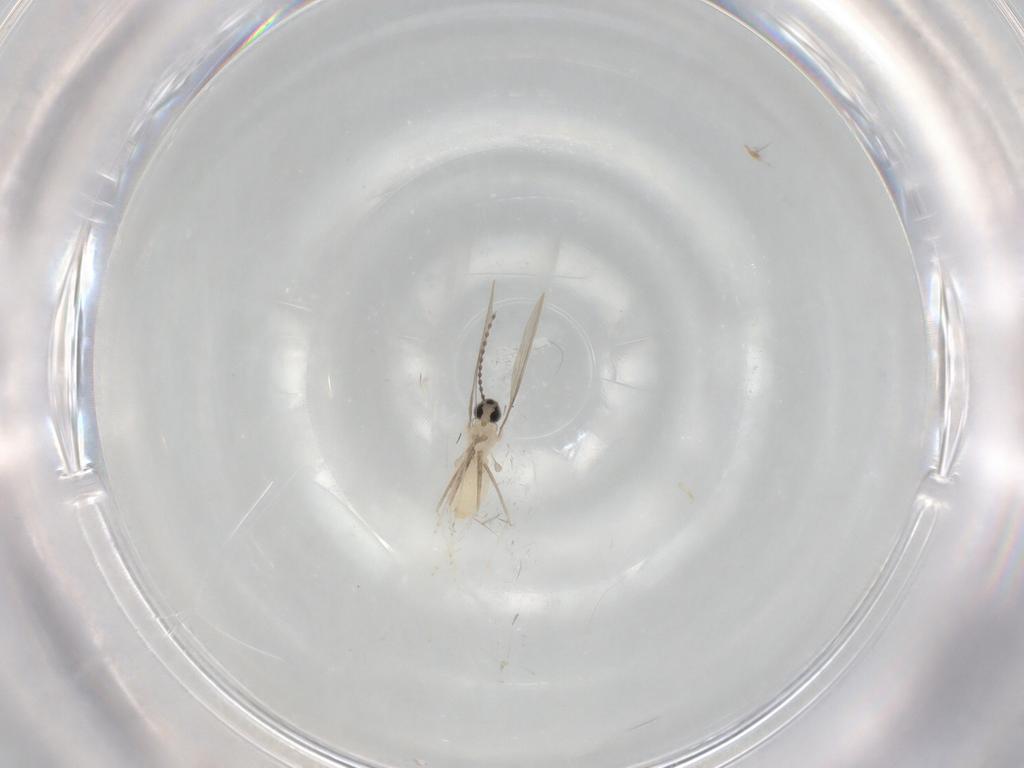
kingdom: Animalia
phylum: Arthropoda
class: Insecta
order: Diptera
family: Cecidomyiidae
